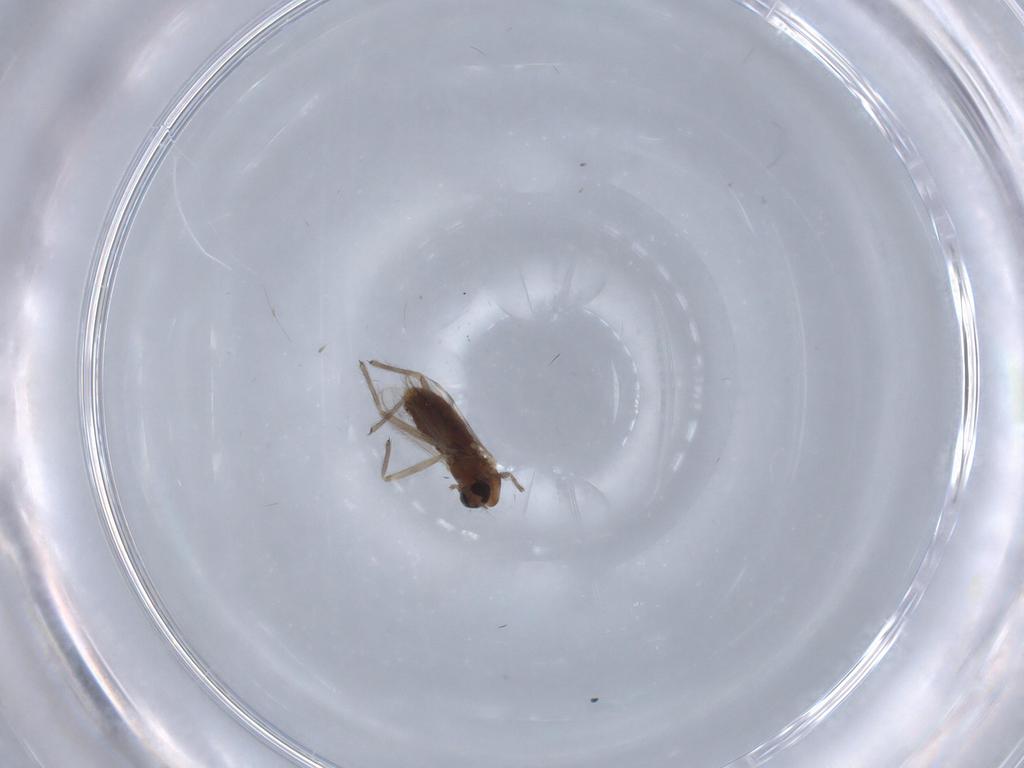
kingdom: Animalia
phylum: Arthropoda
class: Insecta
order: Diptera
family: Chironomidae
